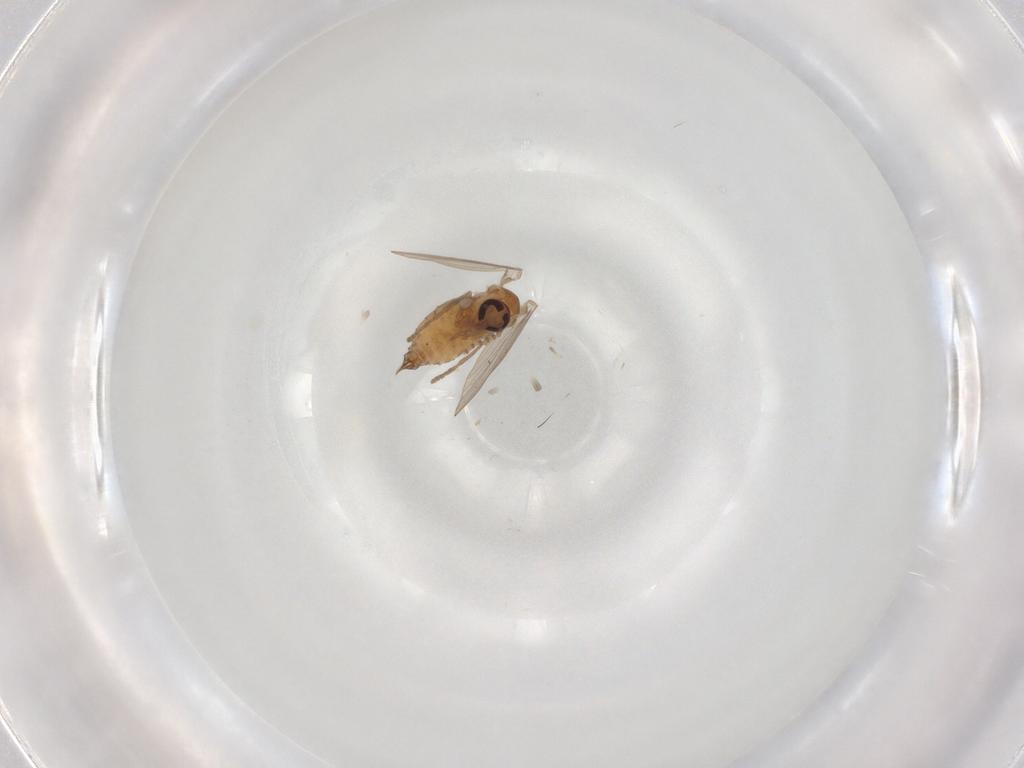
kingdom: Animalia
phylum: Arthropoda
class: Insecta
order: Diptera
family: Psychodidae
